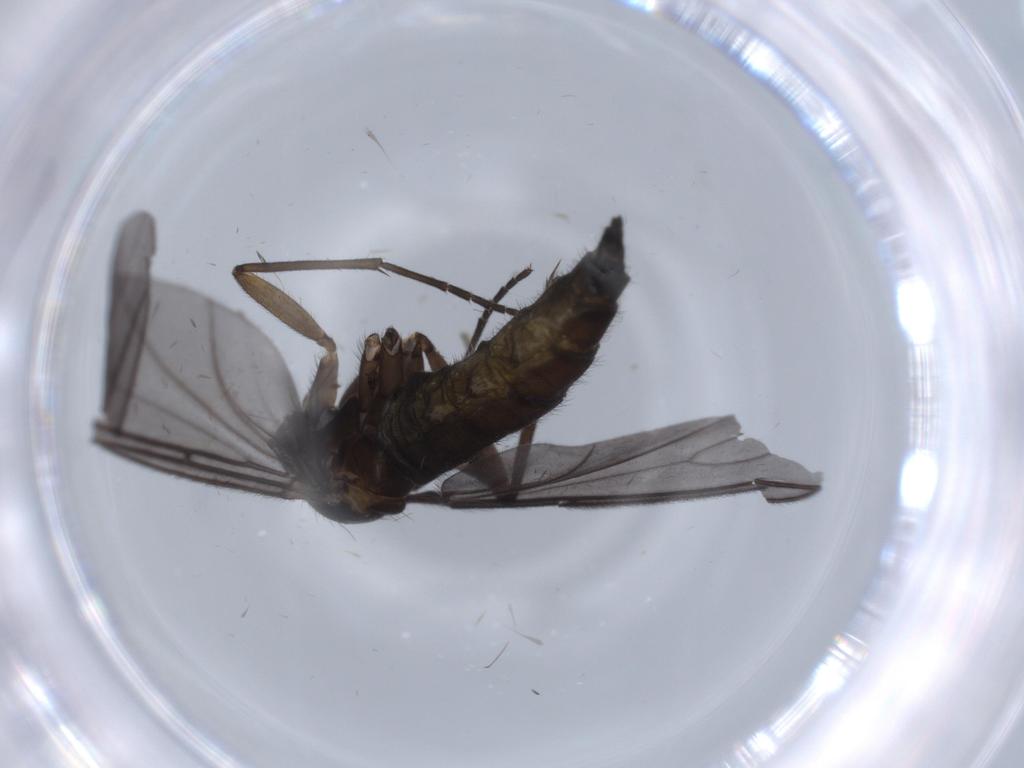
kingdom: Animalia
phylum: Arthropoda
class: Insecta
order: Diptera
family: Sciaridae
